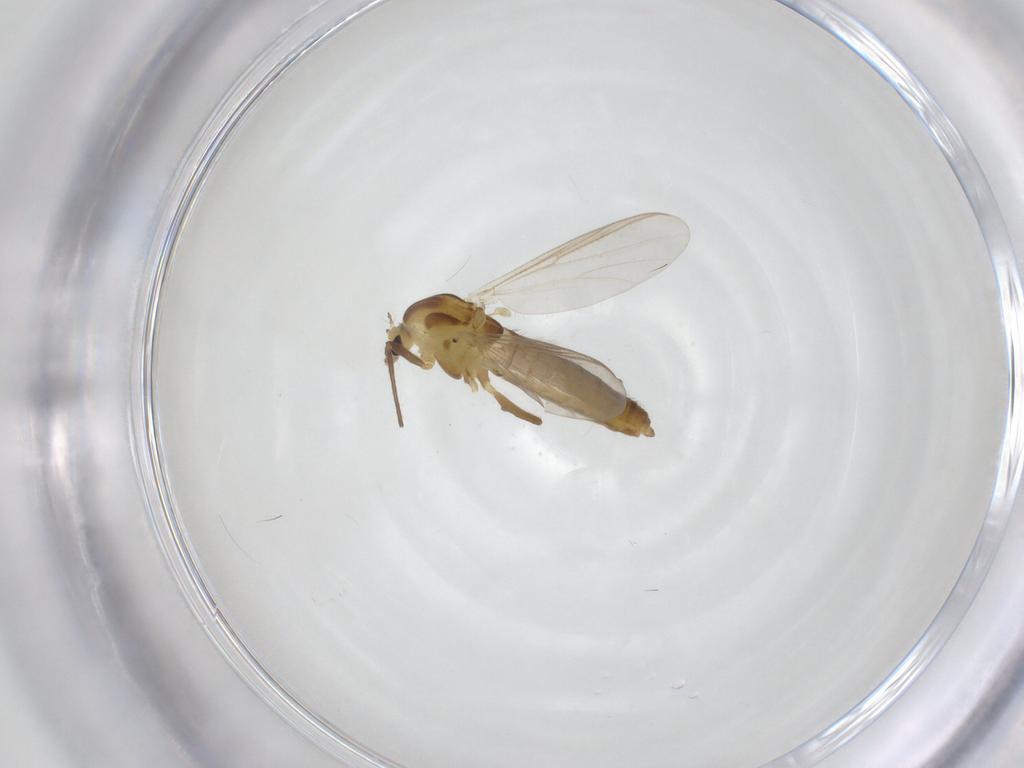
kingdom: Animalia
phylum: Arthropoda
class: Insecta
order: Diptera
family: Chironomidae
